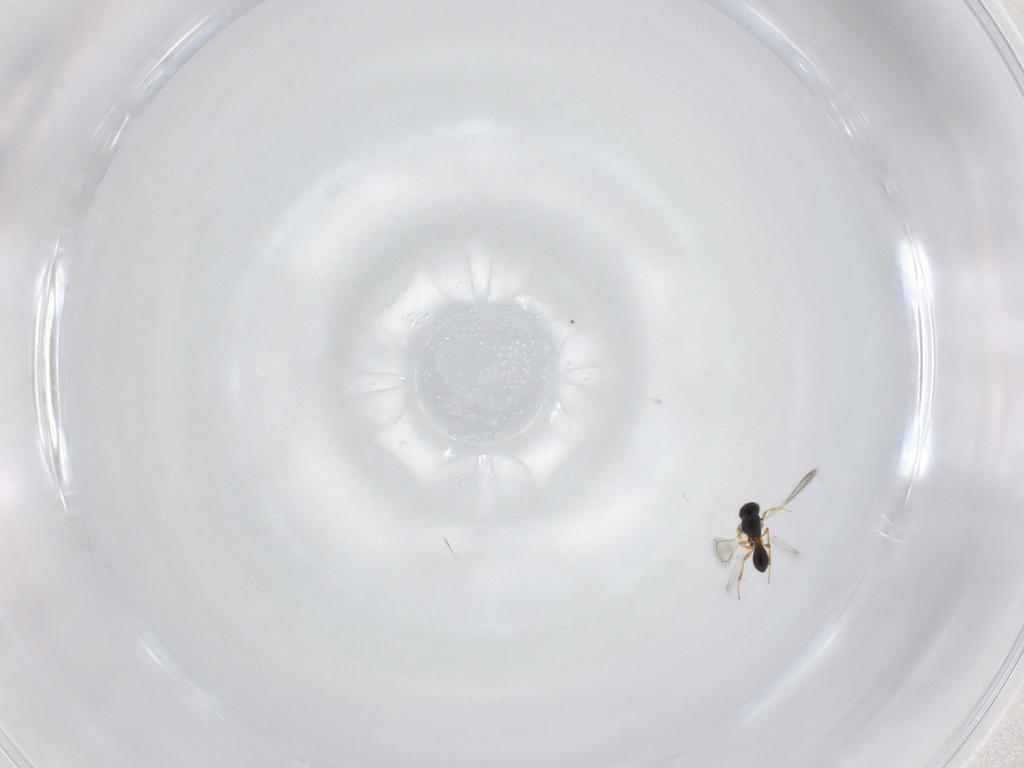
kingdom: Animalia
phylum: Arthropoda
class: Insecta
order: Hymenoptera
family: Platygastridae
